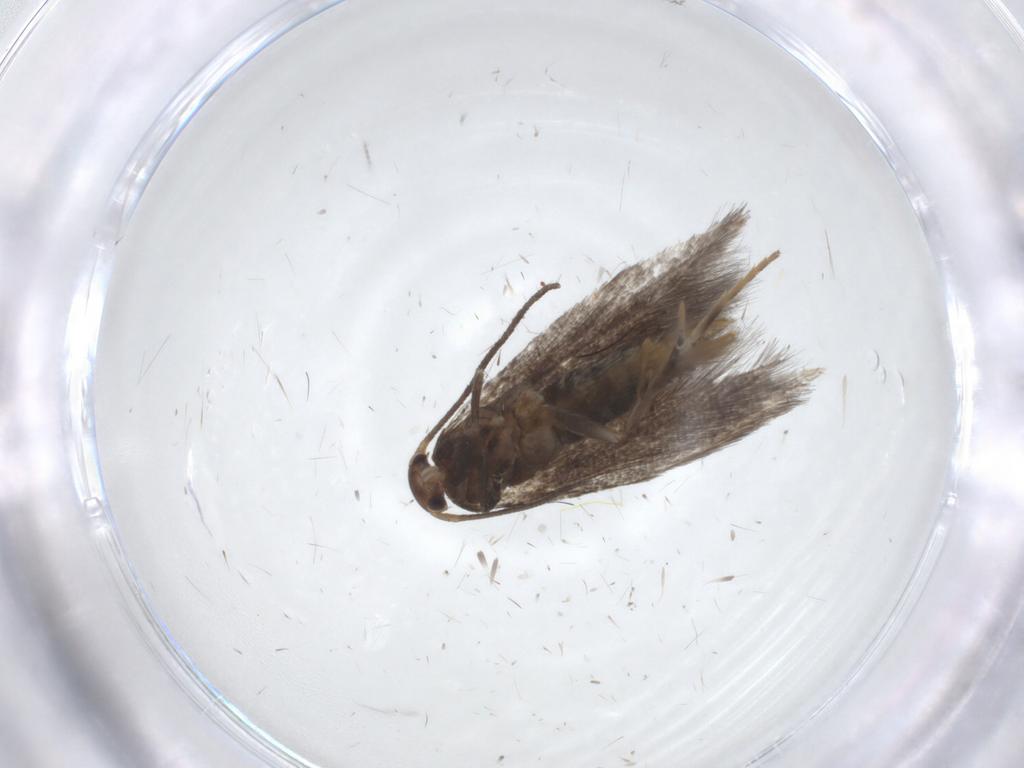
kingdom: Animalia
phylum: Arthropoda
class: Insecta
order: Lepidoptera
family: Elachistidae
